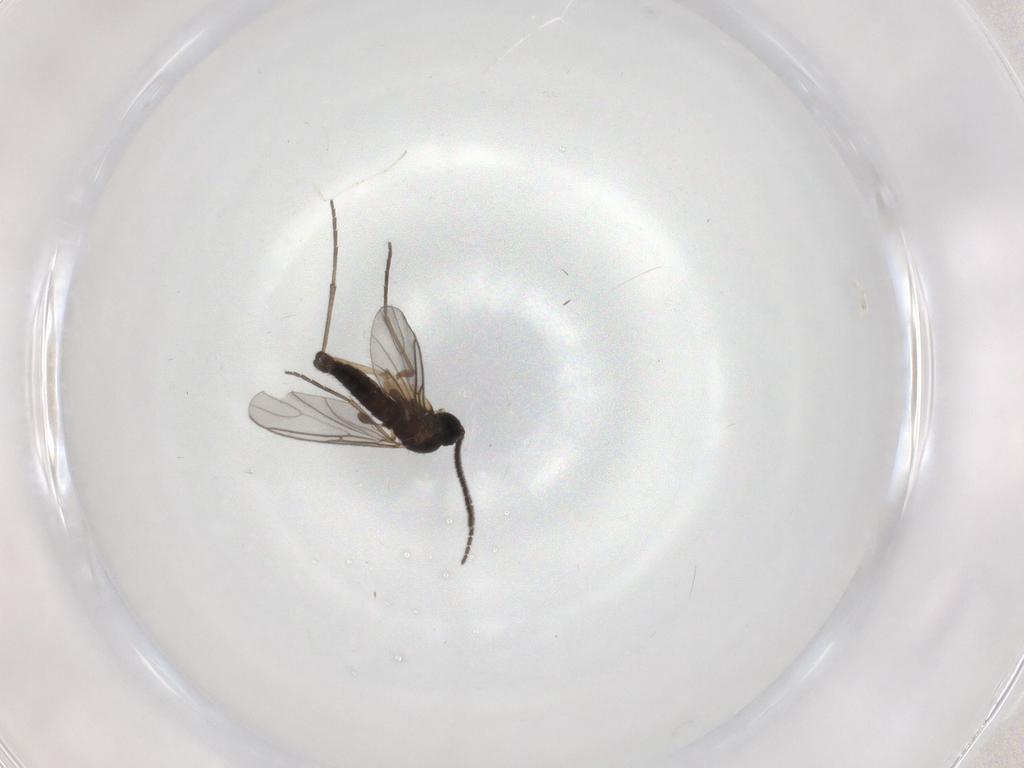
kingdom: Animalia
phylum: Arthropoda
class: Insecta
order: Diptera
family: Sciaridae
